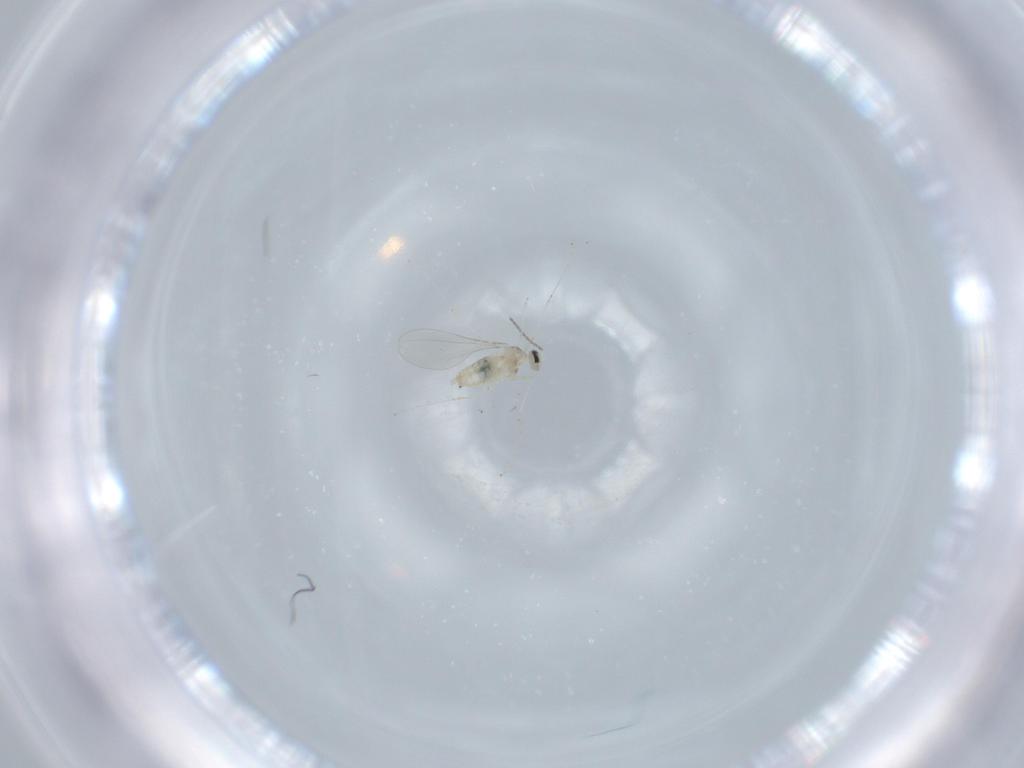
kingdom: Animalia
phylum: Arthropoda
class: Insecta
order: Diptera
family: Cecidomyiidae
